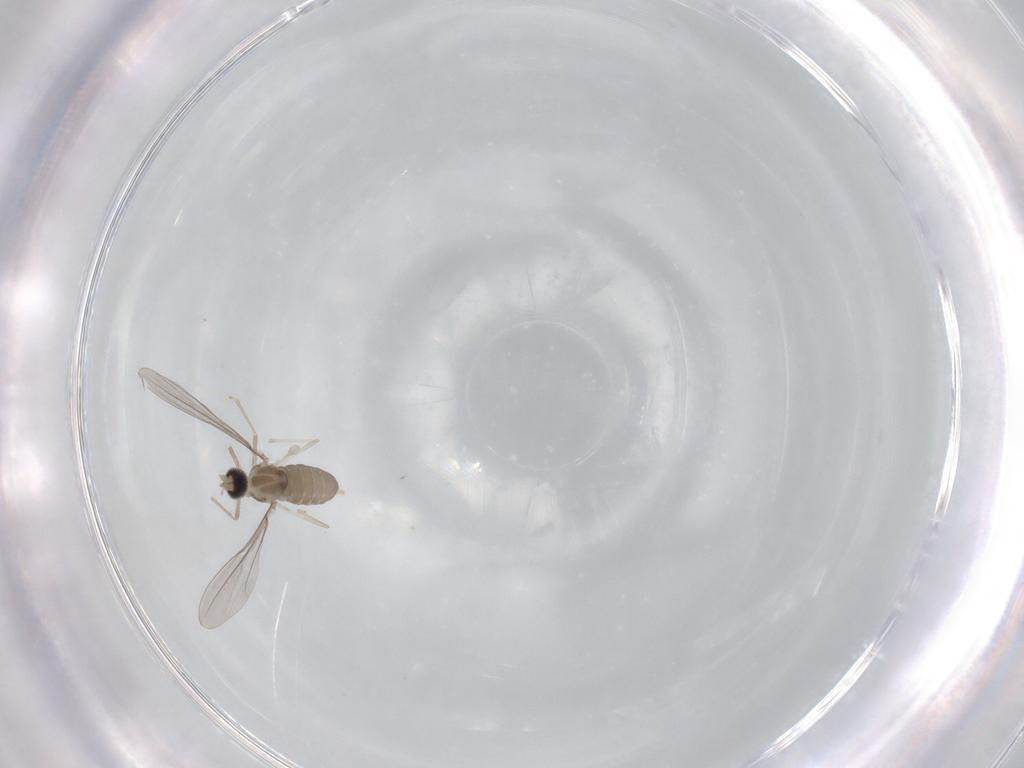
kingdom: Animalia
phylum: Arthropoda
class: Insecta
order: Diptera
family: Cecidomyiidae
